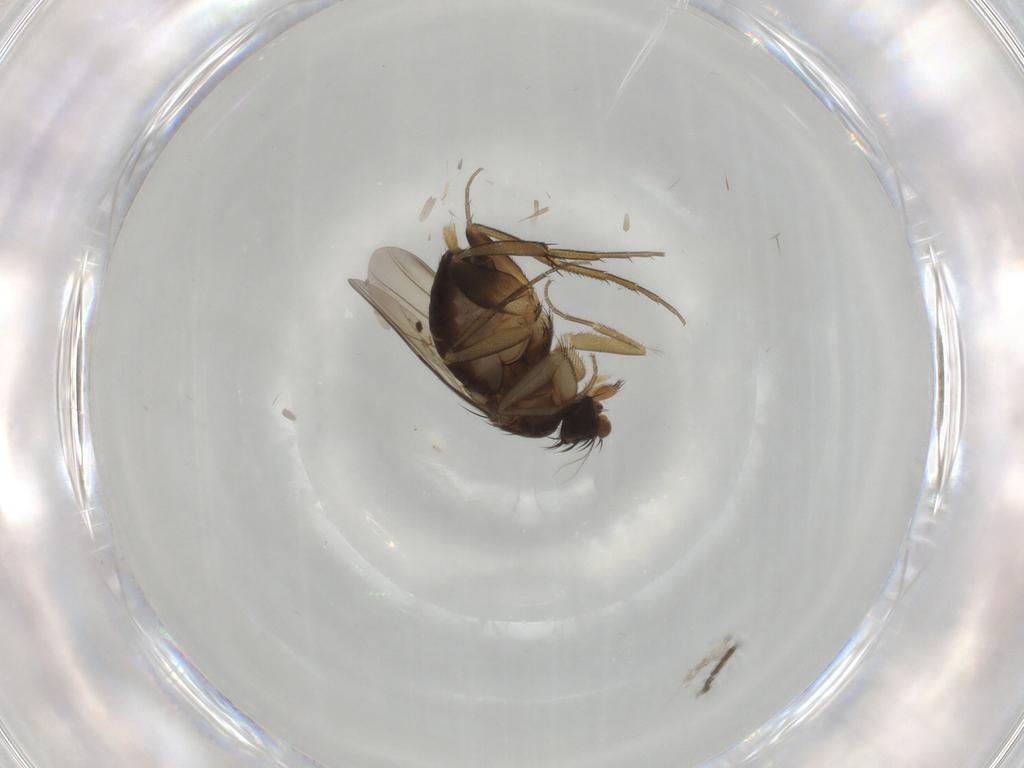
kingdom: Animalia
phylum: Arthropoda
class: Insecta
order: Diptera
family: Phoridae
